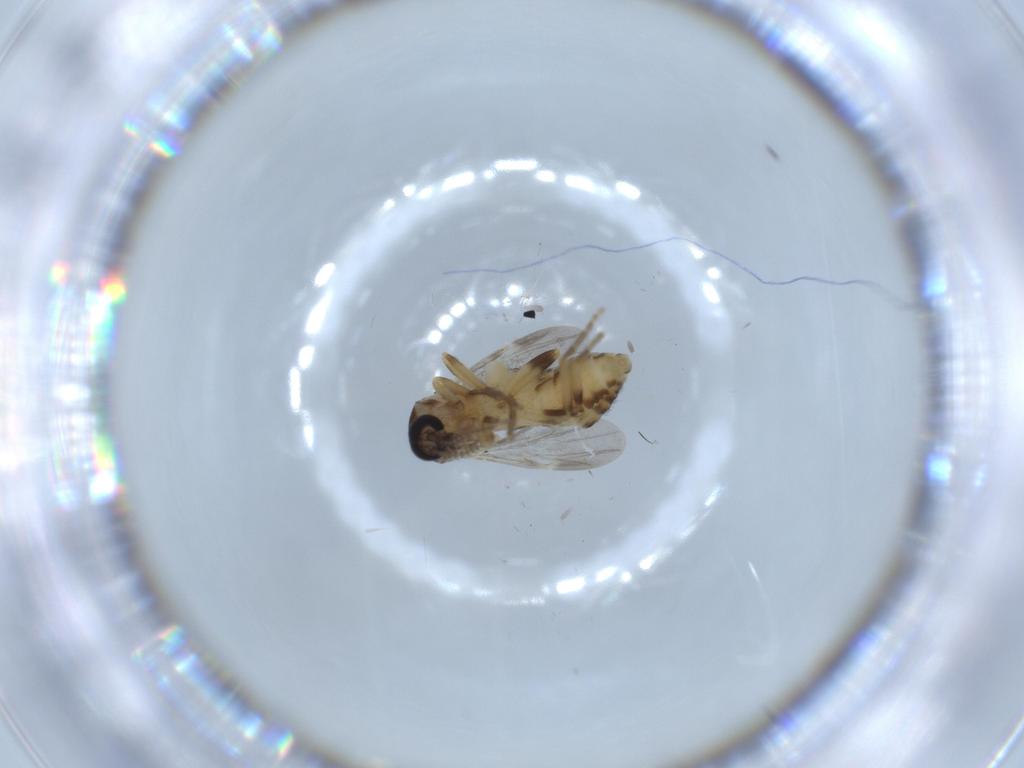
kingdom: Animalia
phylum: Arthropoda
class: Insecta
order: Diptera
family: Ceratopogonidae
